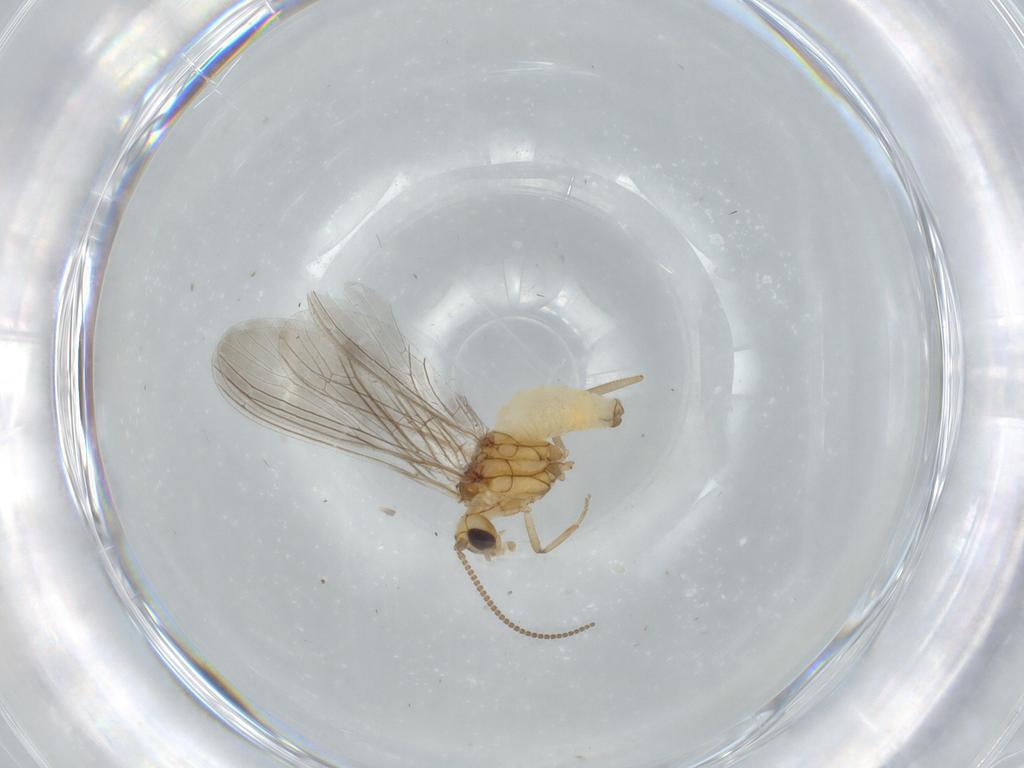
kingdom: Animalia
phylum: Arthropoda
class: Insecta
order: Neuroptera
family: Coniopterygidae
